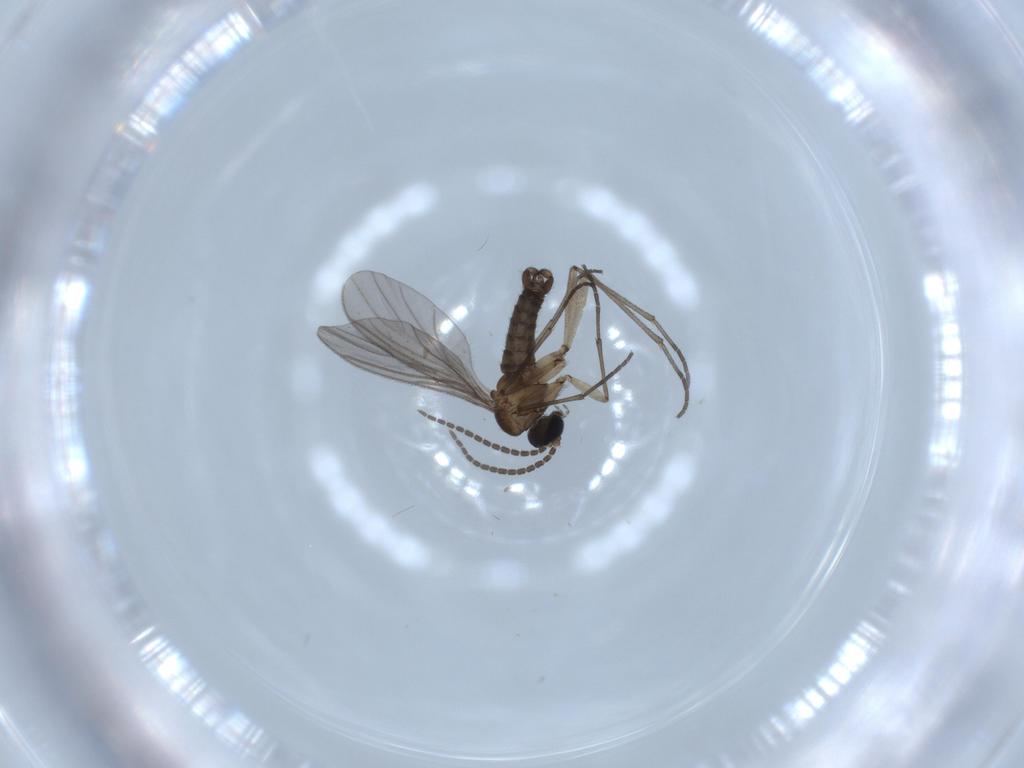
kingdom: Animalia
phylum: Arthropoda
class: Insecta
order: Diptera
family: Sciaridae
